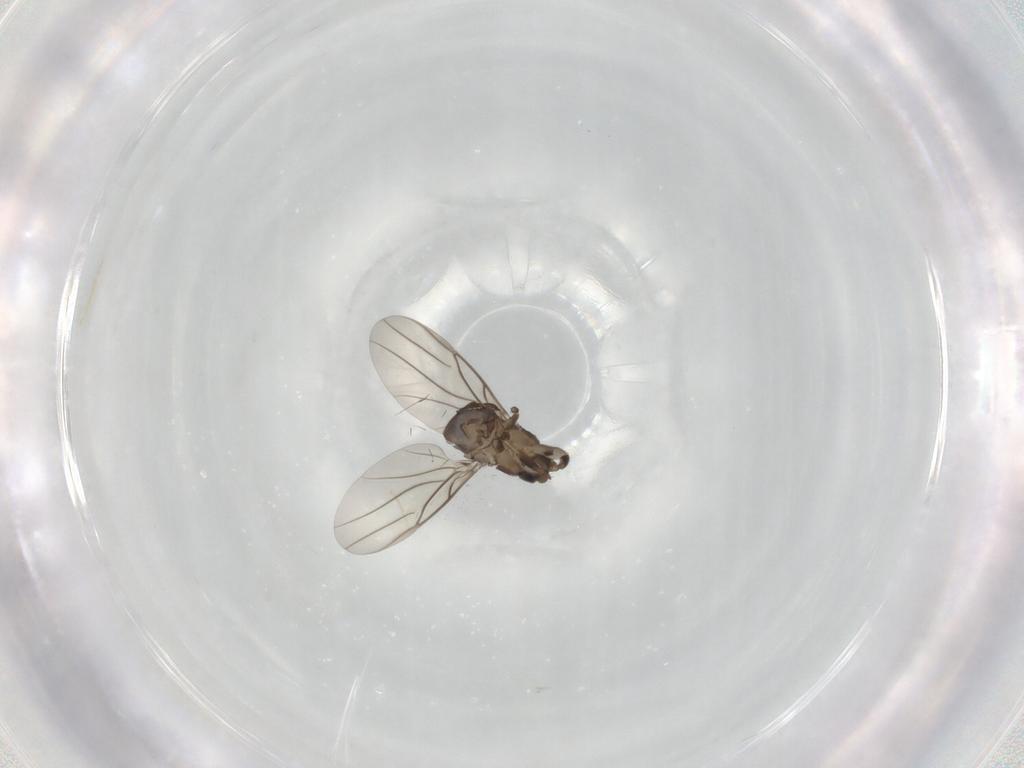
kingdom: Animalia
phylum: Arthropoda
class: Insecta
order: Diptera
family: Phoridae
